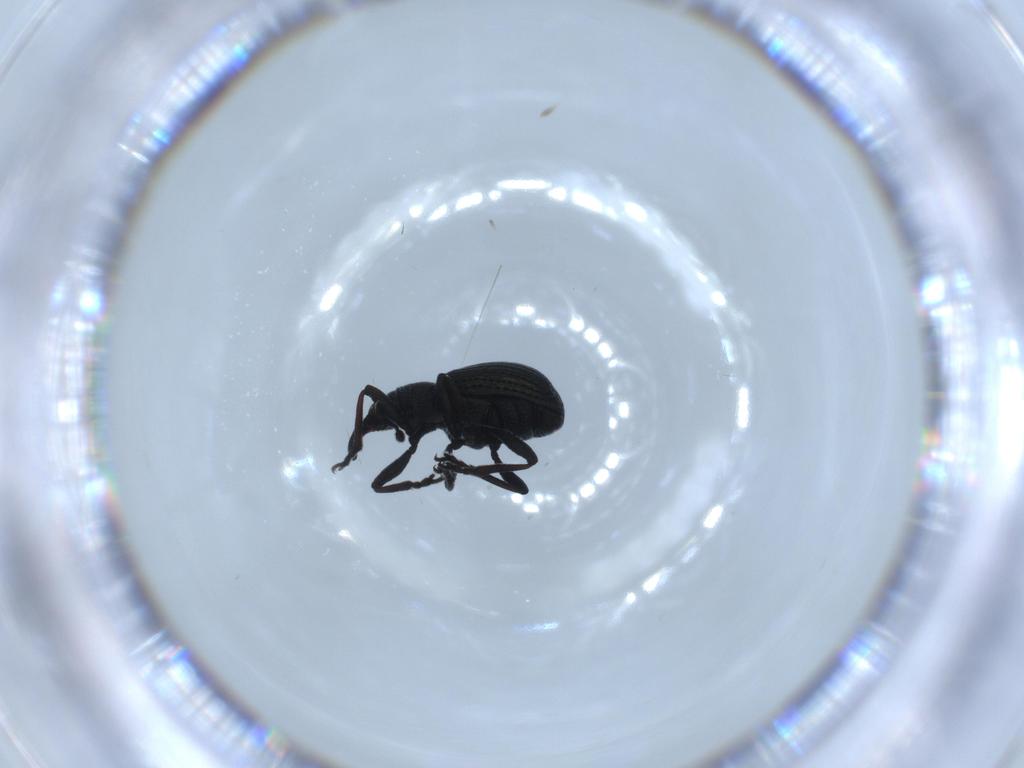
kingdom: Animalia
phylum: Arthropoda
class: Insecta
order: Coleoptera
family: Brentidae
